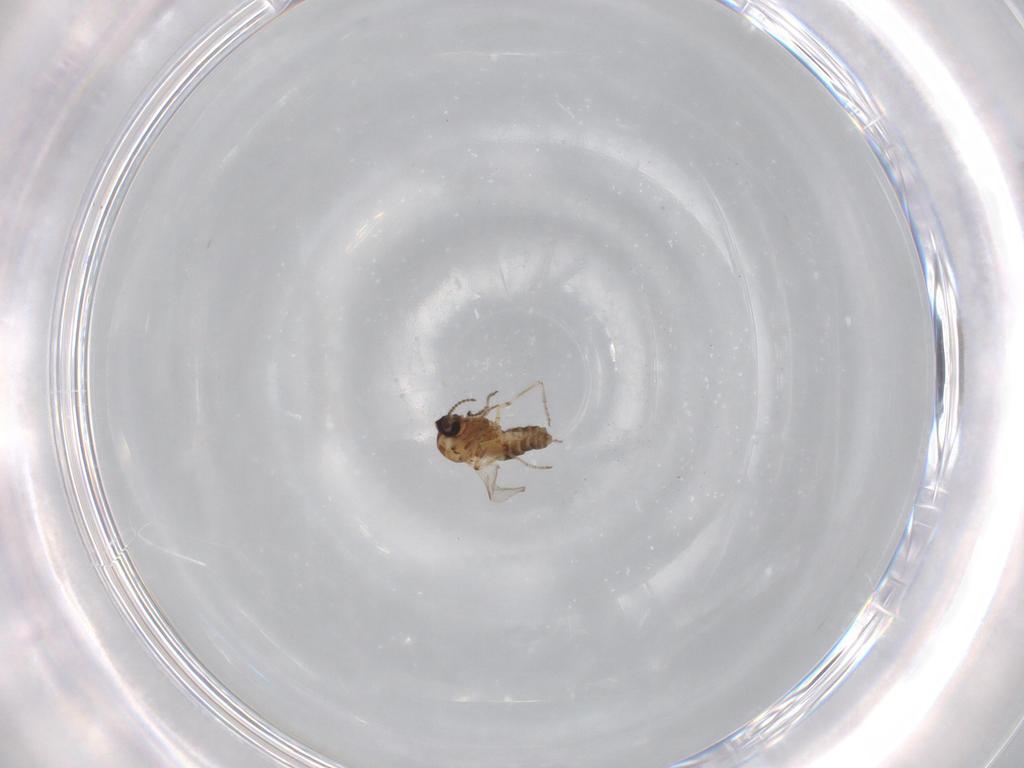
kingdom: Animalia
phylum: Arthropoda
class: Insecta
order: Diptera
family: Ceratopogonidae
